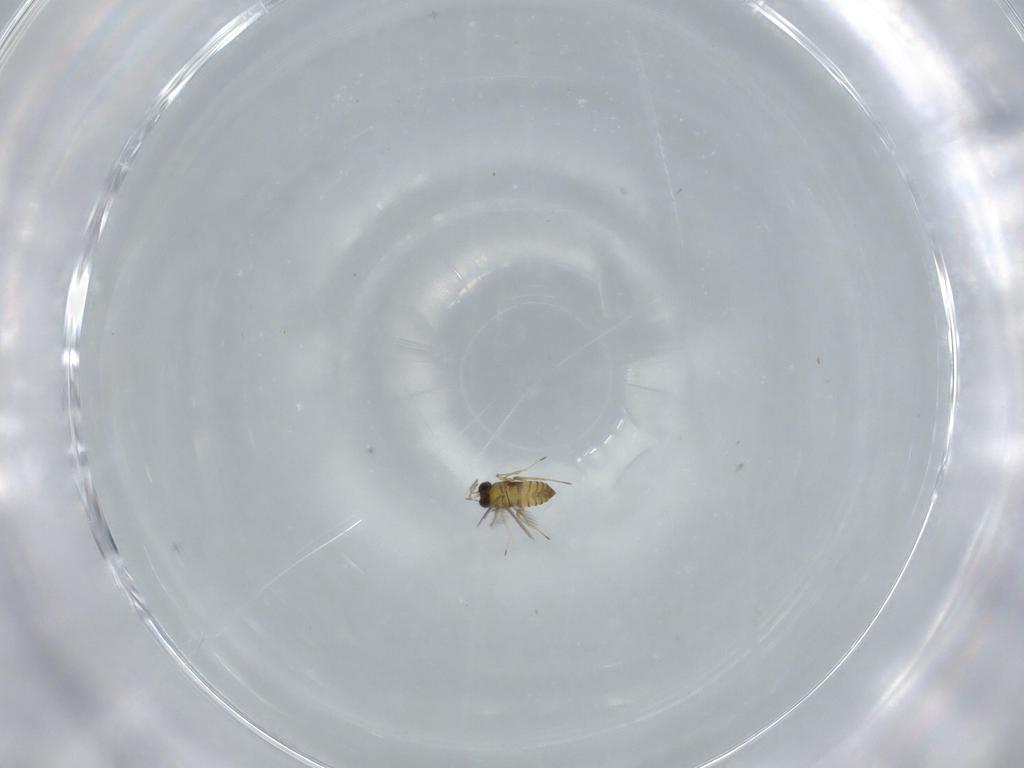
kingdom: Animalia
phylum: Arthropoda
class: Insecta
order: Hymenoptera
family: Trichogrammatidae
